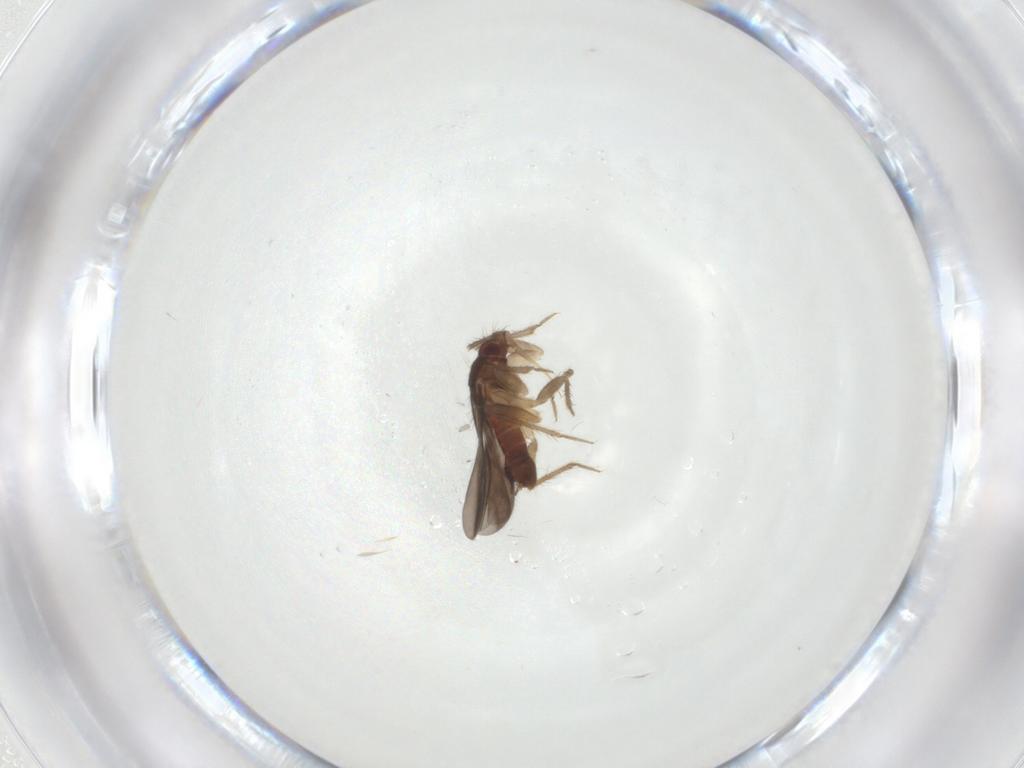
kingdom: Animalia
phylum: Arthropoda
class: Insecta
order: Hemiptera
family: Ceratocombidae
